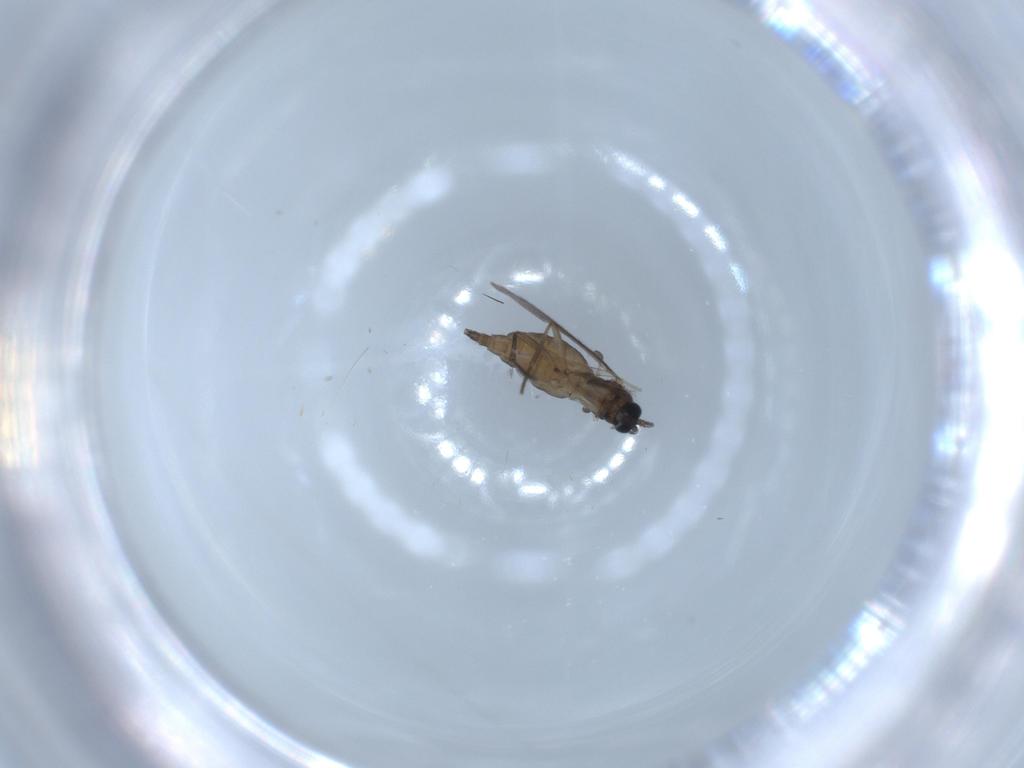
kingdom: Animalia
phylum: Arthropoda
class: Insecta
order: Diptera
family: Sciaridae
